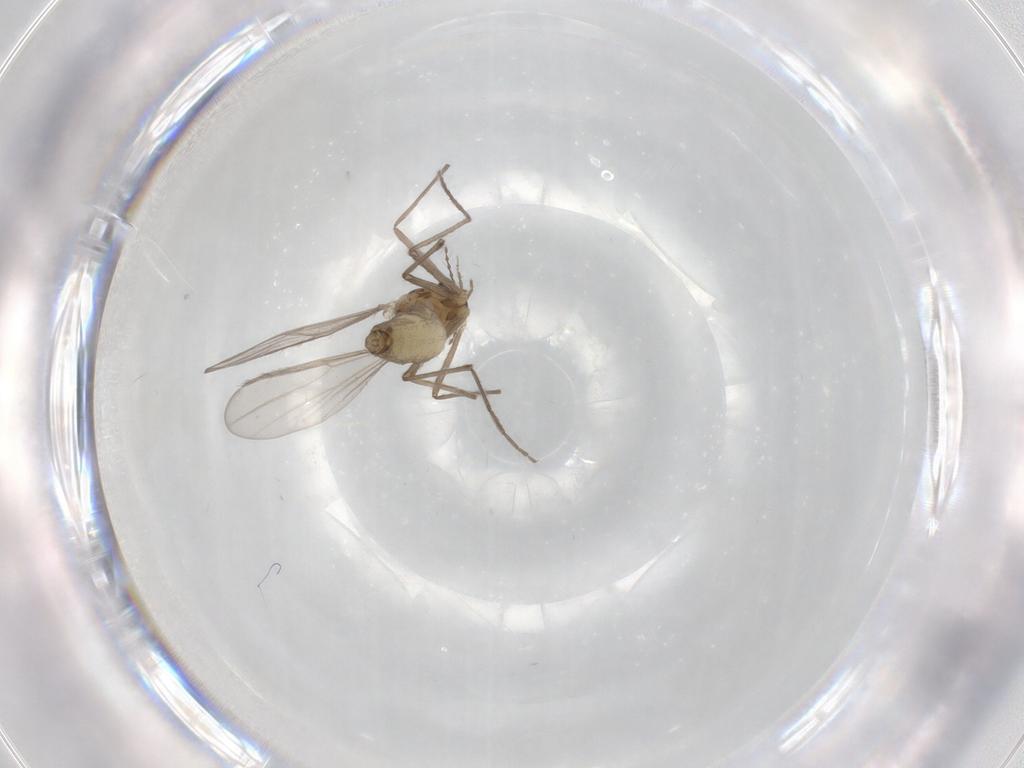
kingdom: Animalia
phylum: Arthropoda
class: Insecta
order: Diptera
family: Chironomidae
